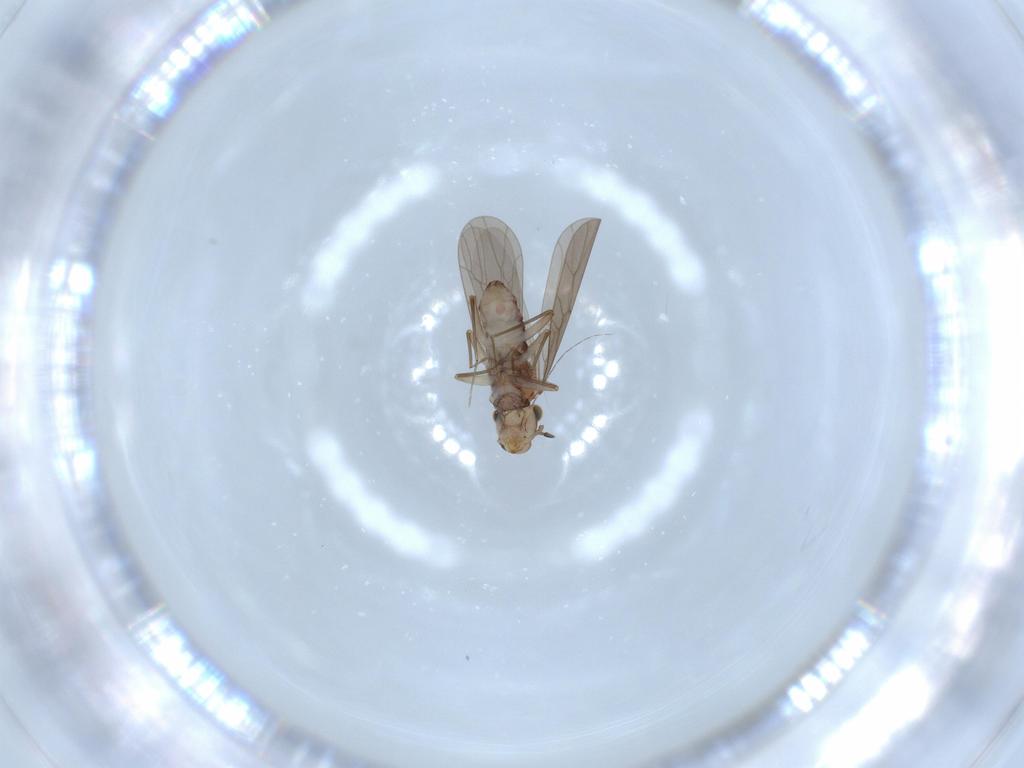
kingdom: Animalia
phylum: Arthropoda
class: Insecta
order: Psocodea
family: Lepidopsocidae
